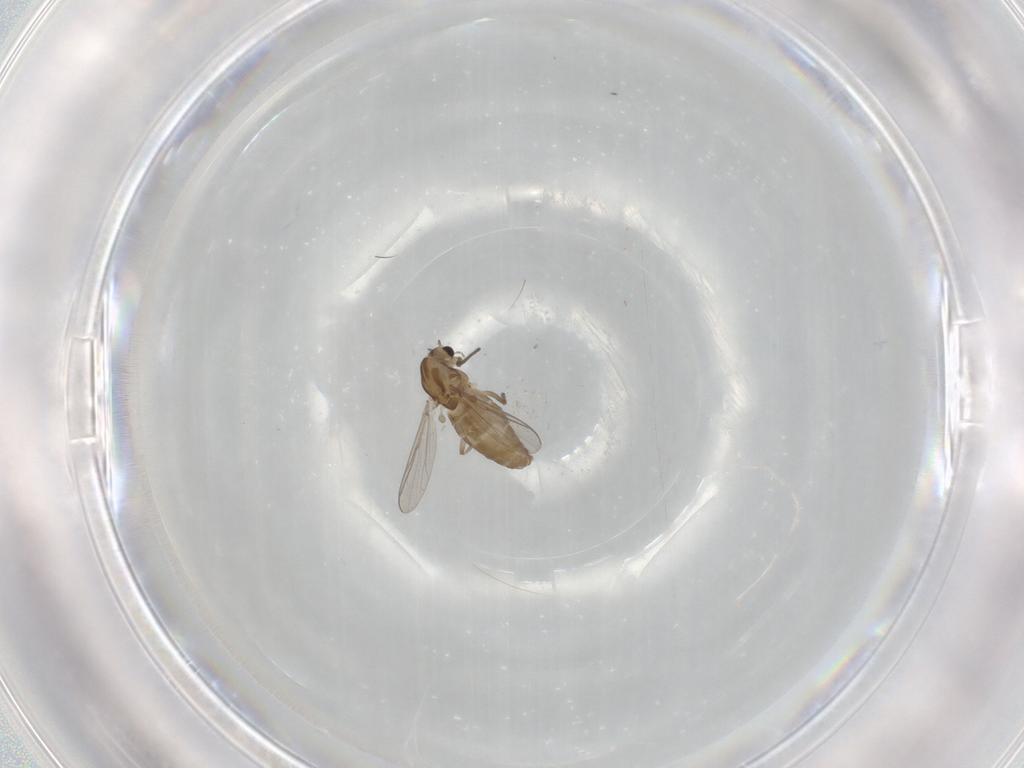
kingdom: Animalia
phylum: Arthropoda
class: Insecta
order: Diptera
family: Chironomidae
